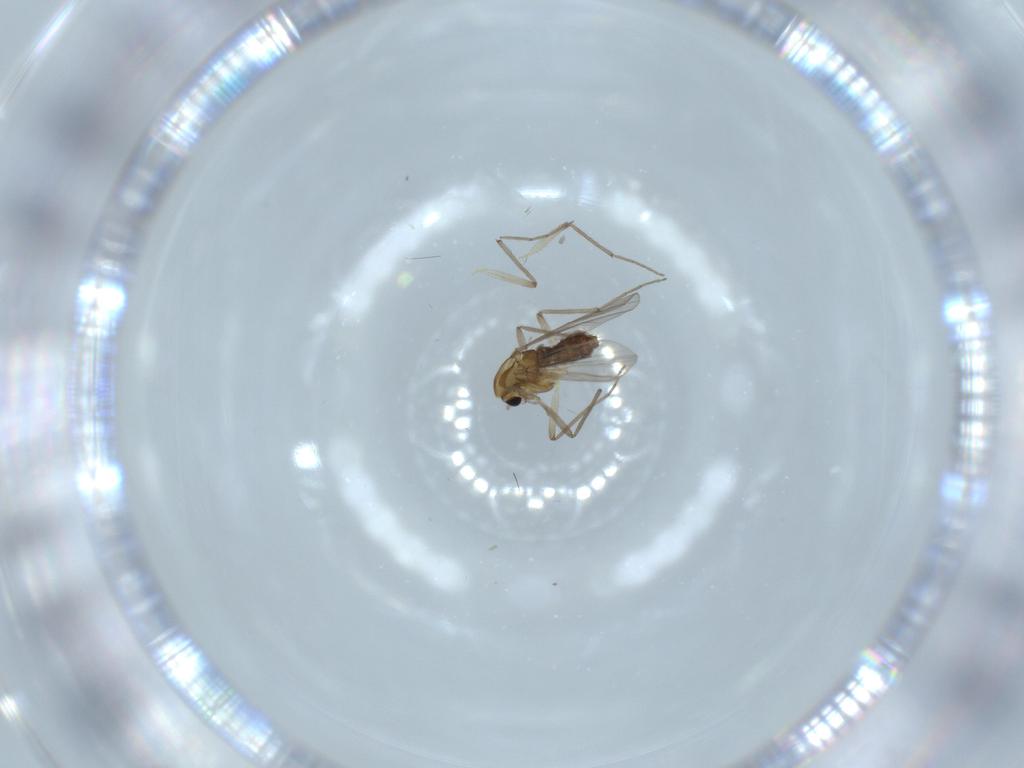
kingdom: Animalia
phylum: Arthropoda
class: Insecta
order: Diptera
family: Chironomidae
